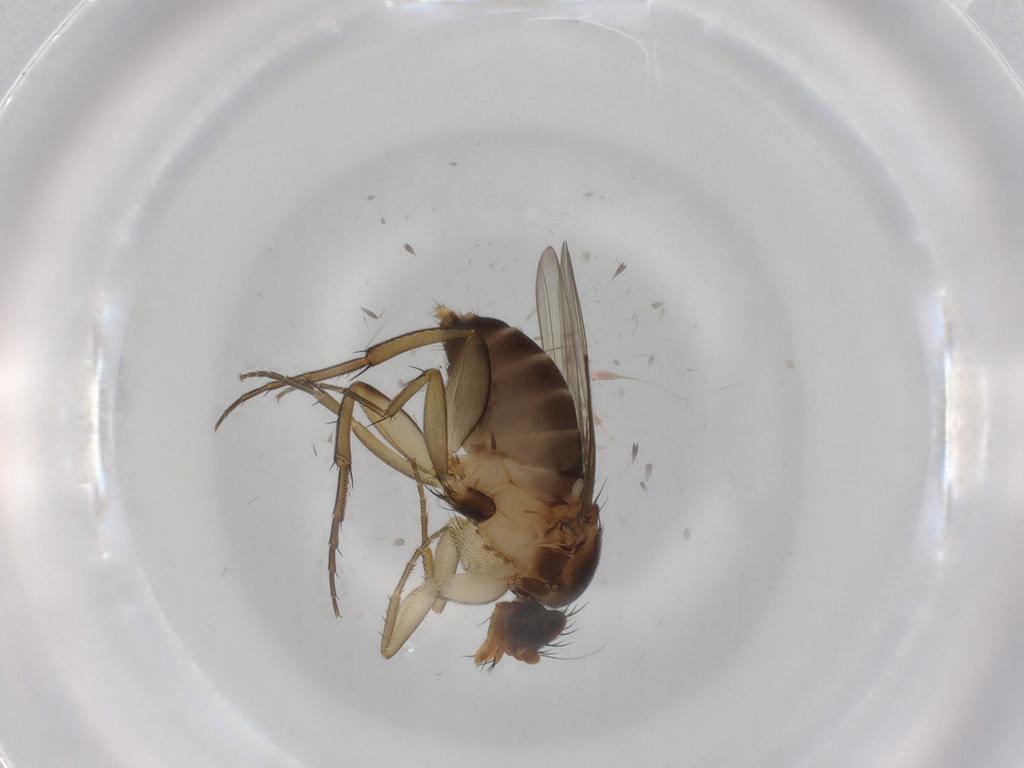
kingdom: Animalia
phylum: Arthropoda
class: Insecta
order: Diptera
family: Phoridae
